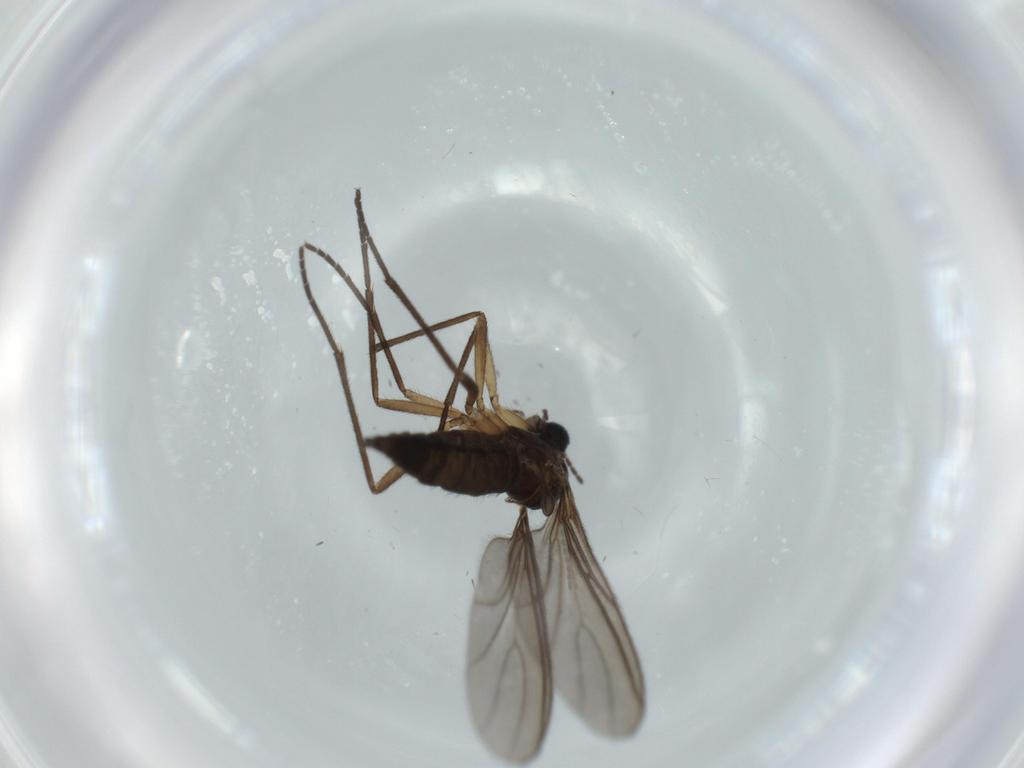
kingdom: Animalia
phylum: Arthropoda
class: Insecta
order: Diptera
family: Sciaridae
